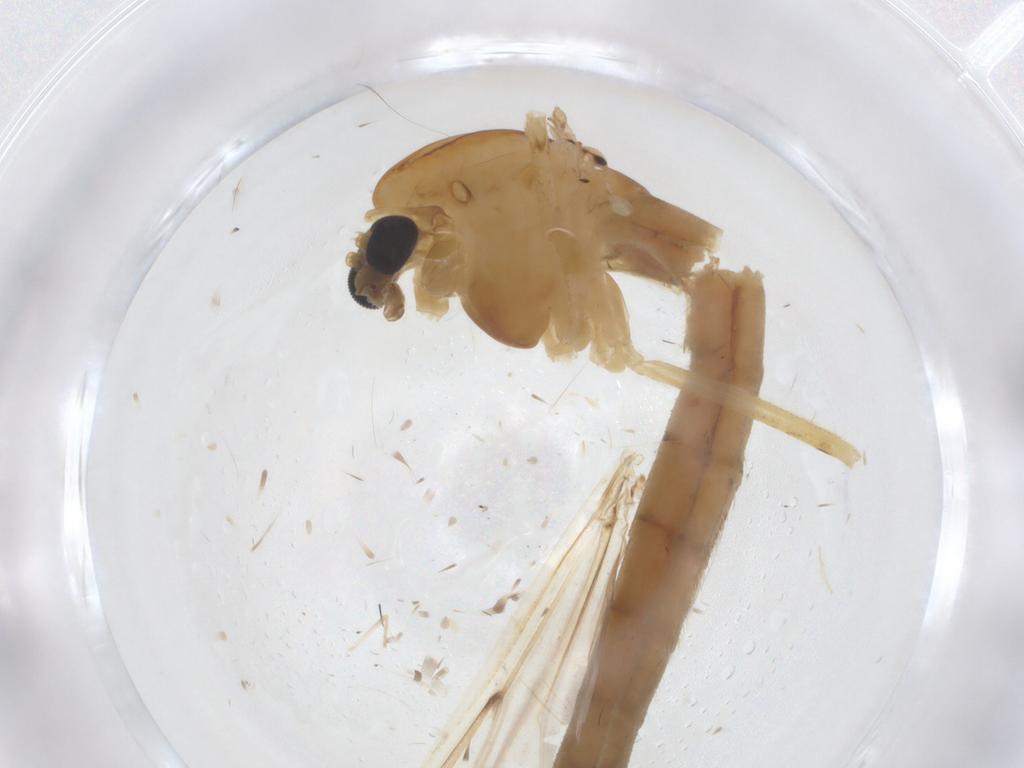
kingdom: Animalia
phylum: Arthropoda
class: Insecta
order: Diptera
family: Chironomidae
